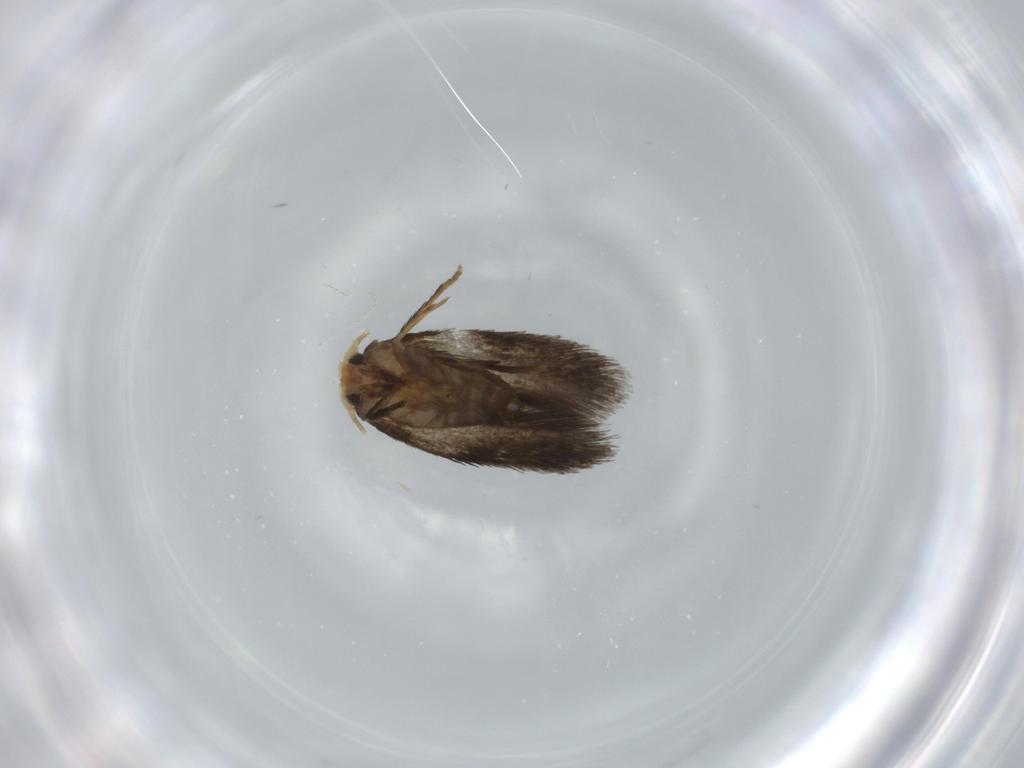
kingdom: Animalia
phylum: Arthropoda
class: Insecta
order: Lepidoptera
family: Nepticulidae
